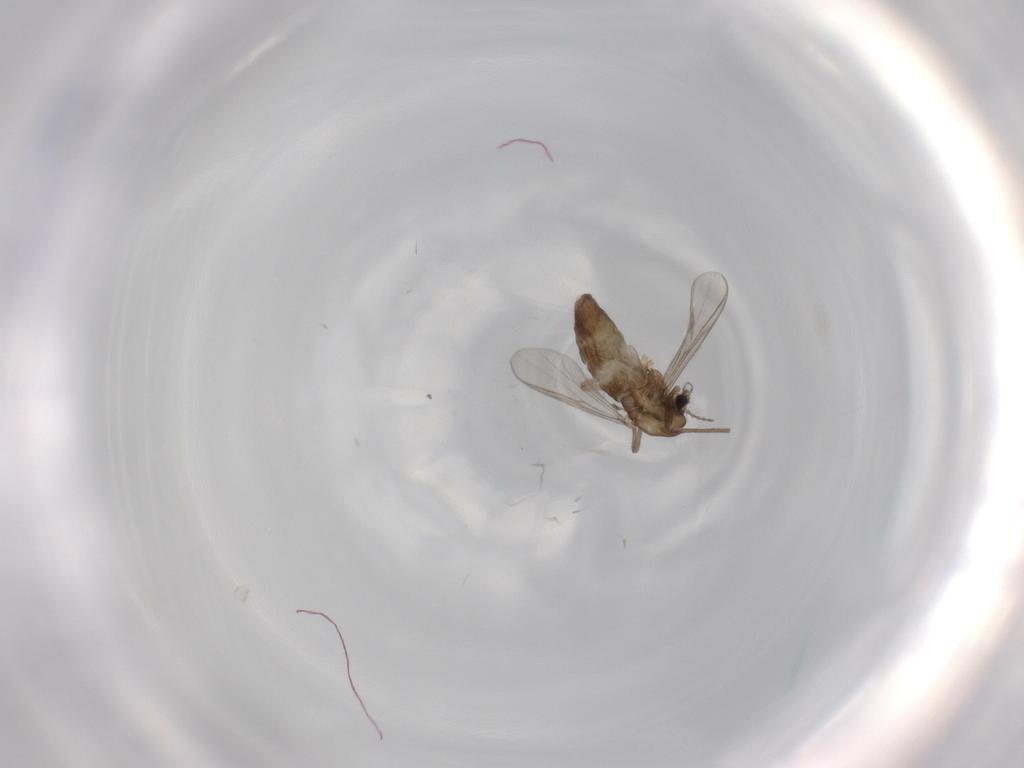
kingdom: Animalia
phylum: Arthropoda
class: Insecta
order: Diptera
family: Chironomidae
